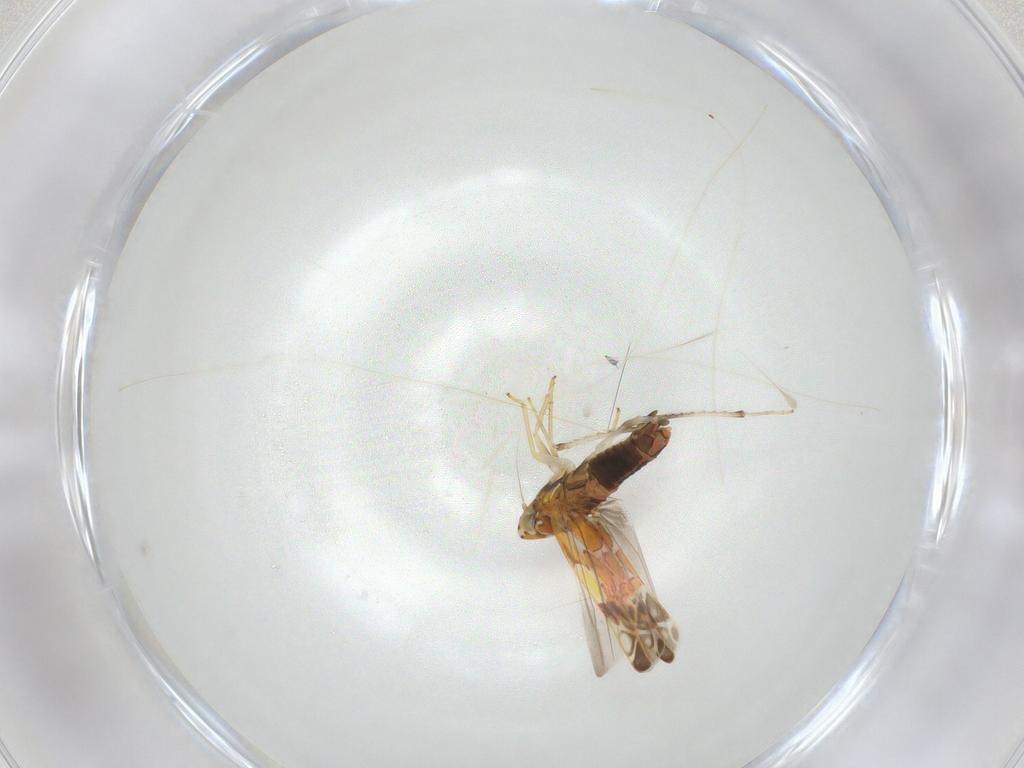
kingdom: Animalia
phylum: Arthropoda
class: Insecta
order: Hemiptera
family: Cicadellidae
